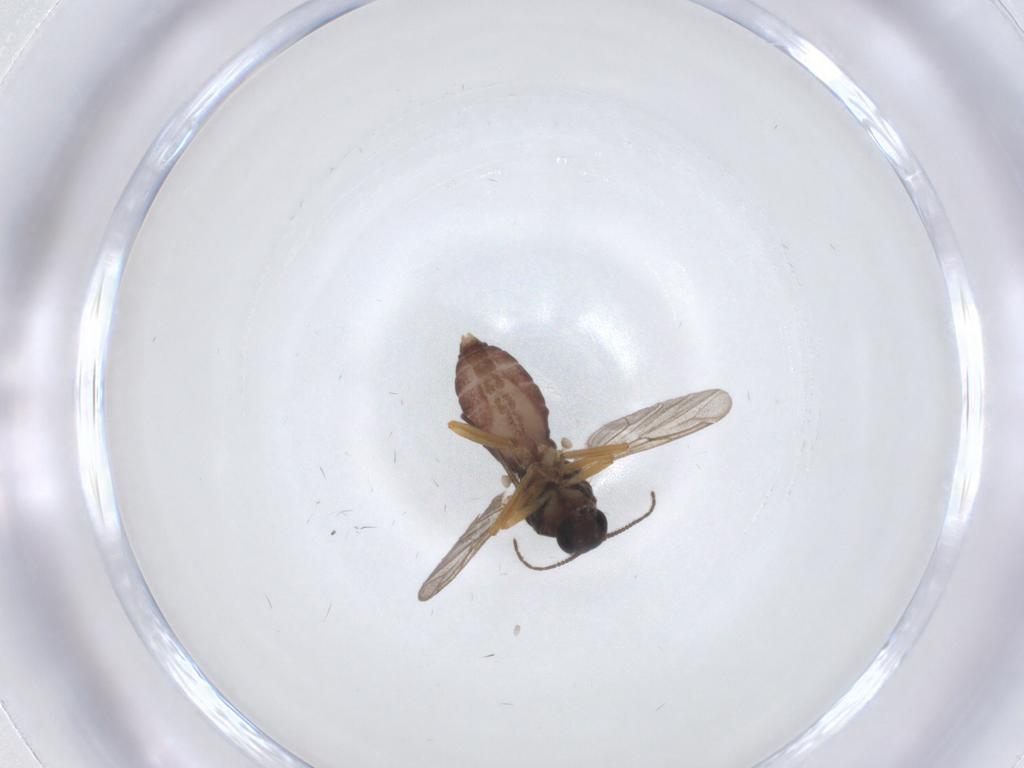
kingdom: Animalia
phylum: Arthropoda
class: Insecta
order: Diptera
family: Ceratopogonidae
